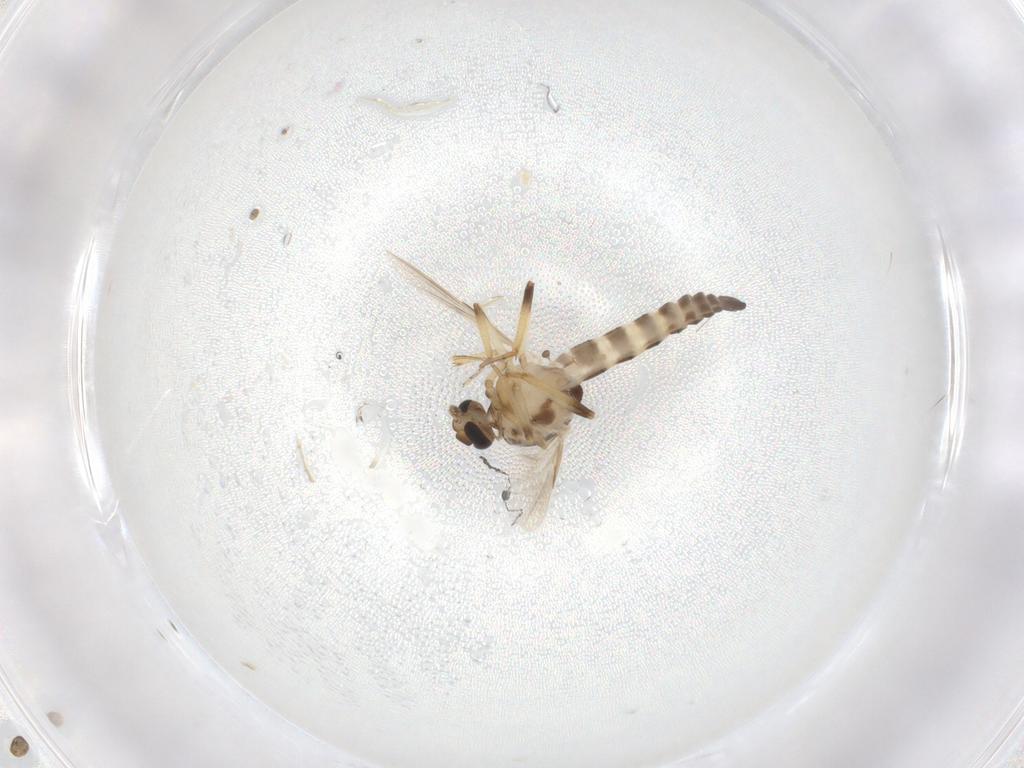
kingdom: Animalia
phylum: Arthropoda
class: Insecta
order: Diptera
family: Ceratopogonidae
